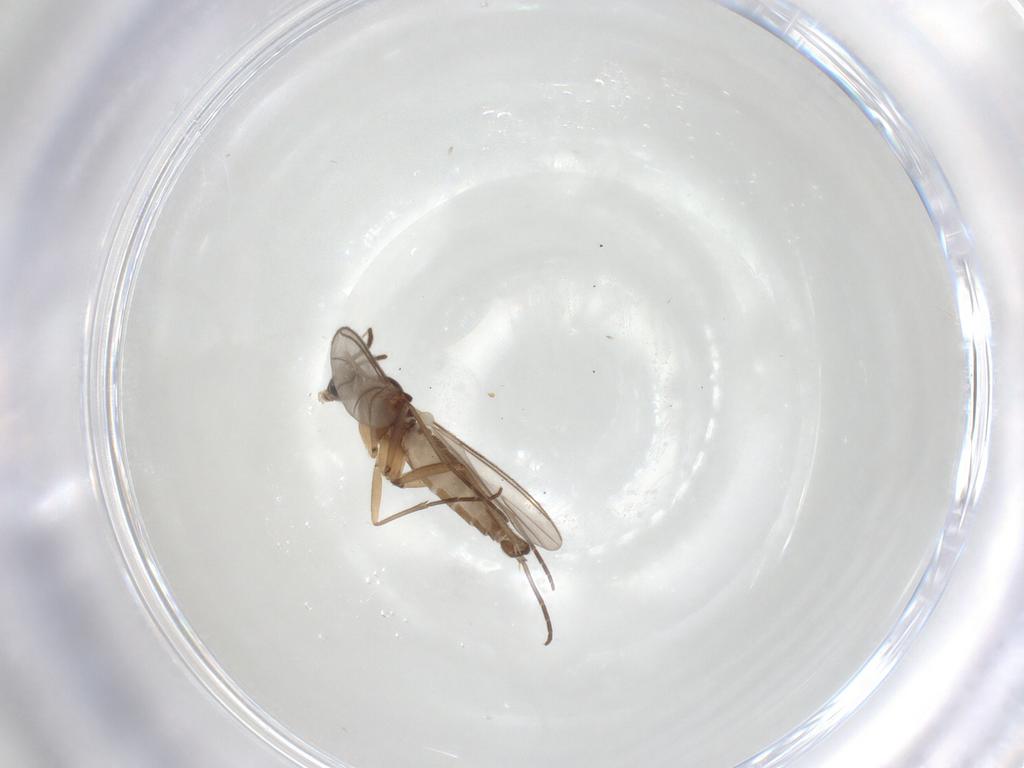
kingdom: Animalia
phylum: Arthropoda
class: Insecta
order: Diptera
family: Sciaridae
